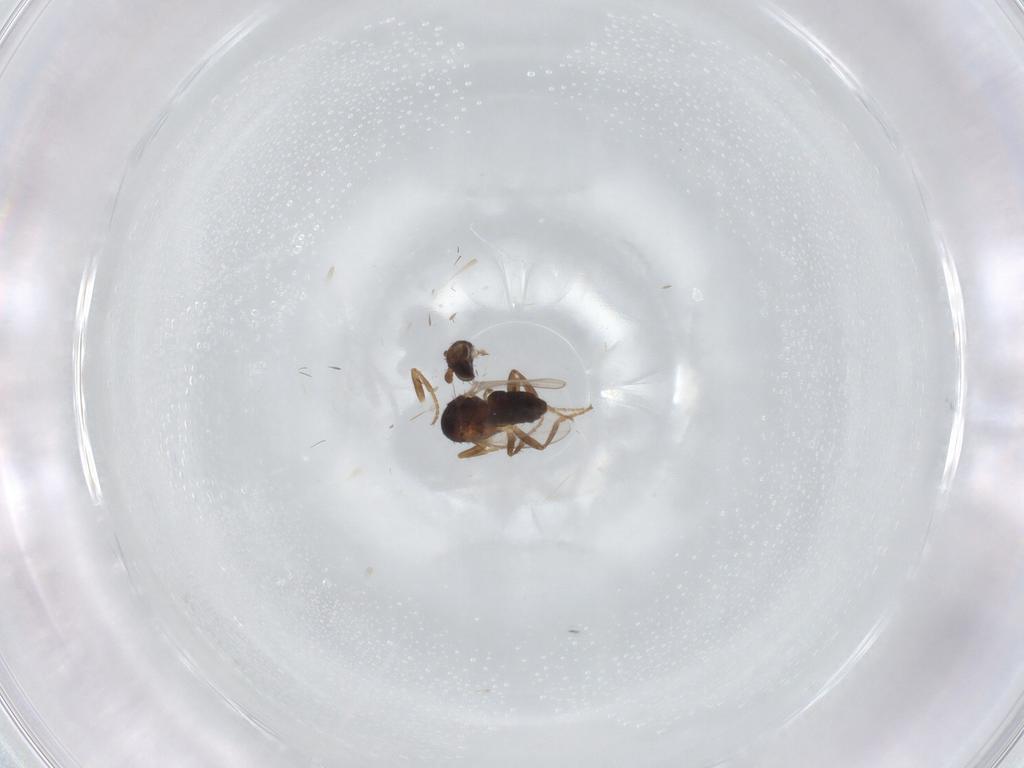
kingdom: Animalia
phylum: Arthropoda
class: Insecta
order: Diptera
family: Sphaeroceridae
